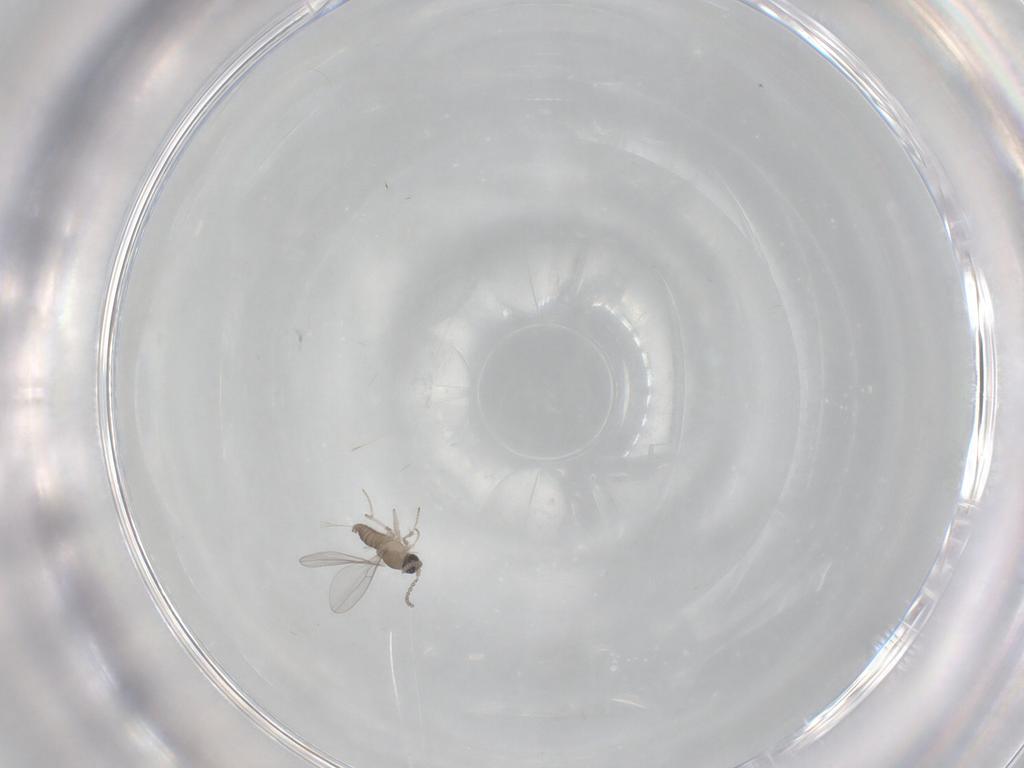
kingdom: Animalia
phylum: Arthropoda
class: Insecta
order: Diptera
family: Cecidomyiidae
